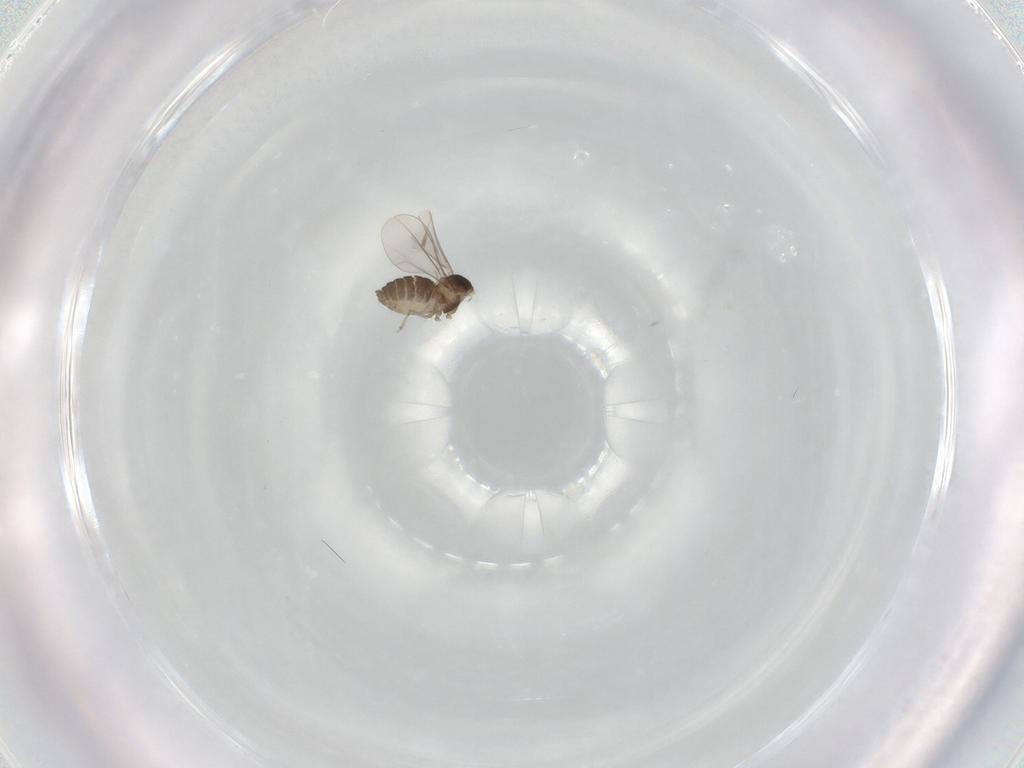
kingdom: Animalia
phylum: Arthropoda
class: Insecta
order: Diptera
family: Cecidomyiidae
